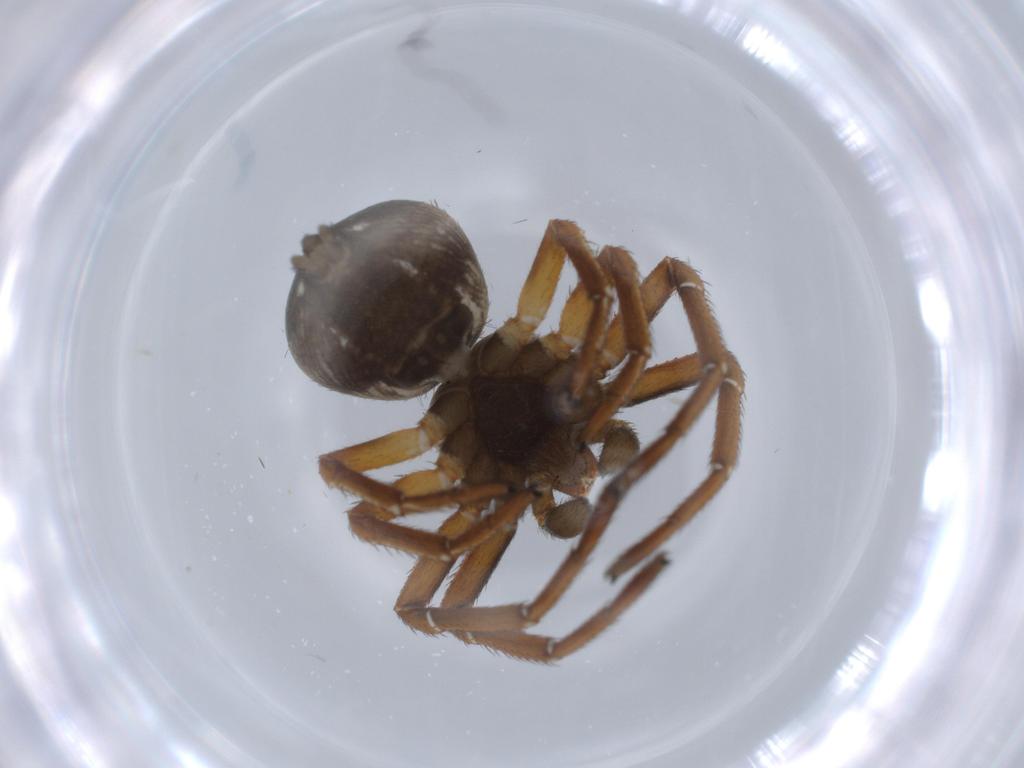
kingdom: Animalia
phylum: Arthropoda
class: Arachnida
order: Araneae
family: Thomisidae
